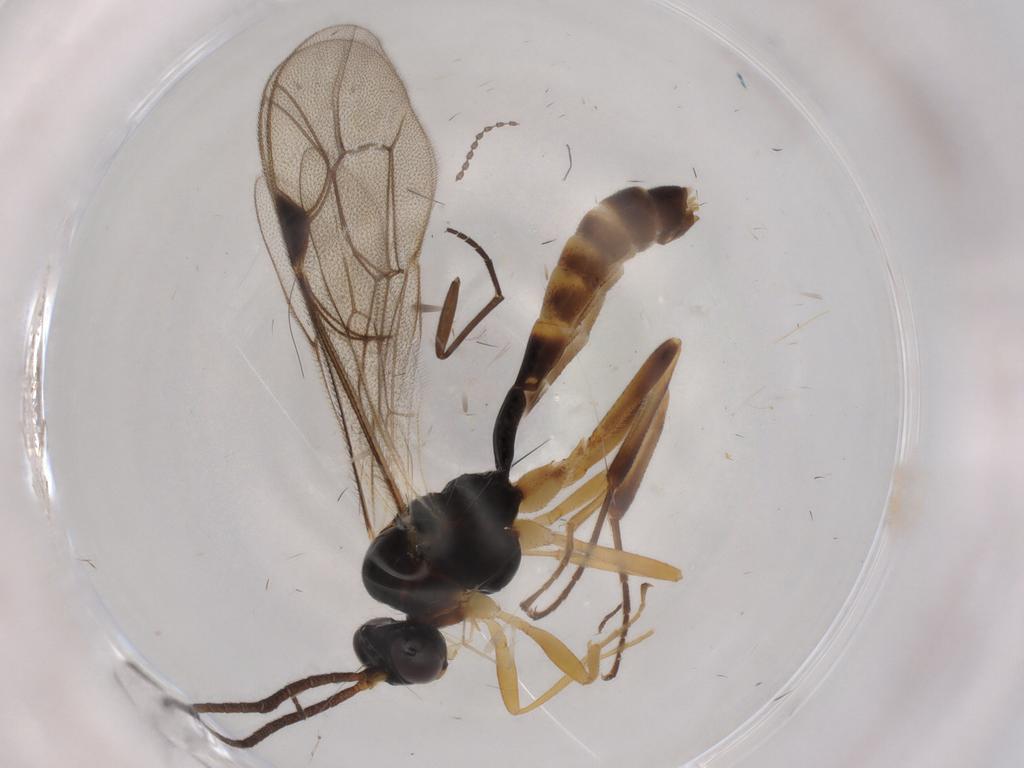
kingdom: Animalia
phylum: Arthropoda
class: Insecta
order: Hymenoptera
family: Ichneumonidae
